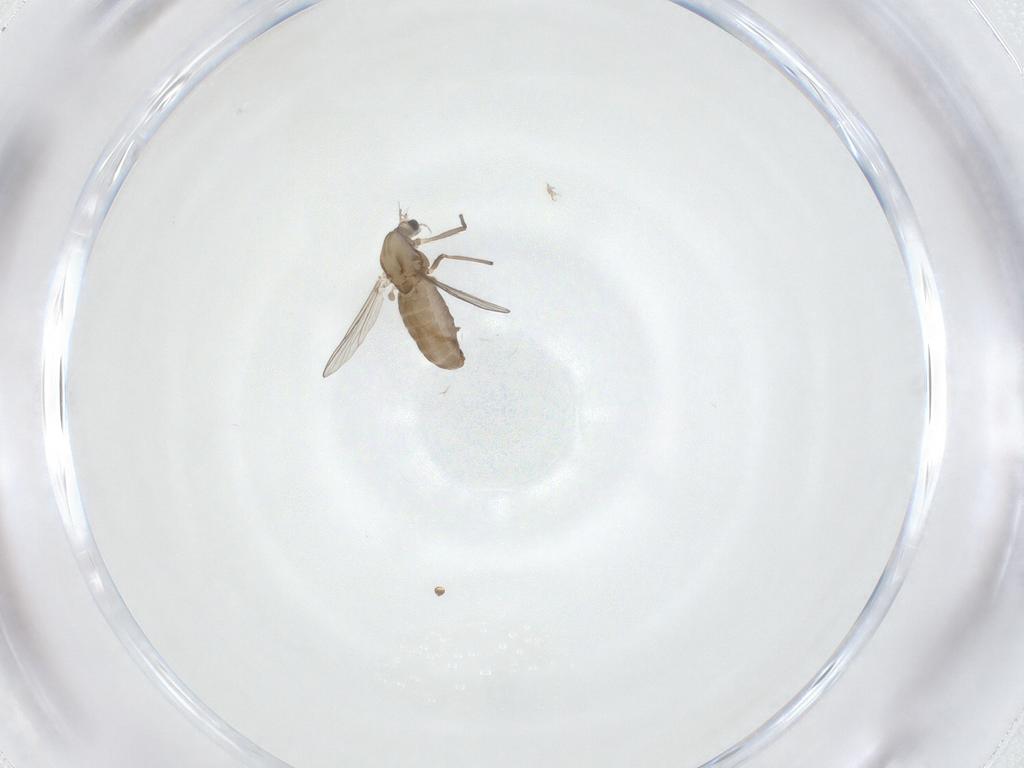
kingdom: Animalia
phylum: Arthropoda
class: Insecta
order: Diptera
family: Chironomidae
